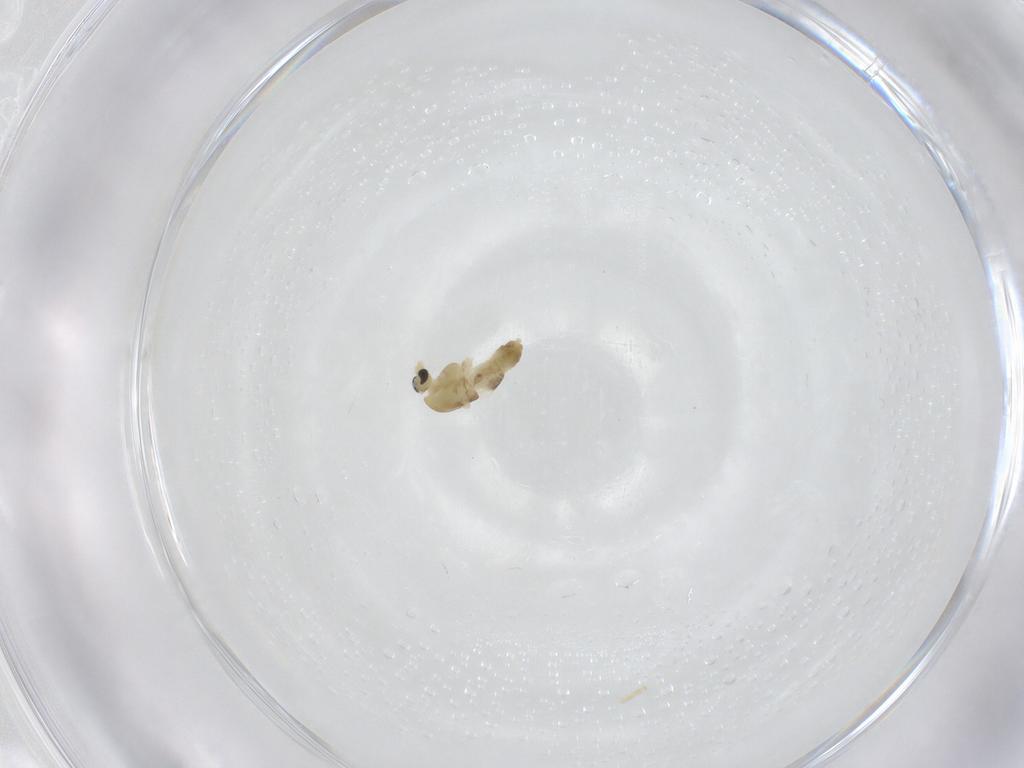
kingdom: Animalia
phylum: Arthropoda
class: Insecta
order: Diptera
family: Chironomidae
